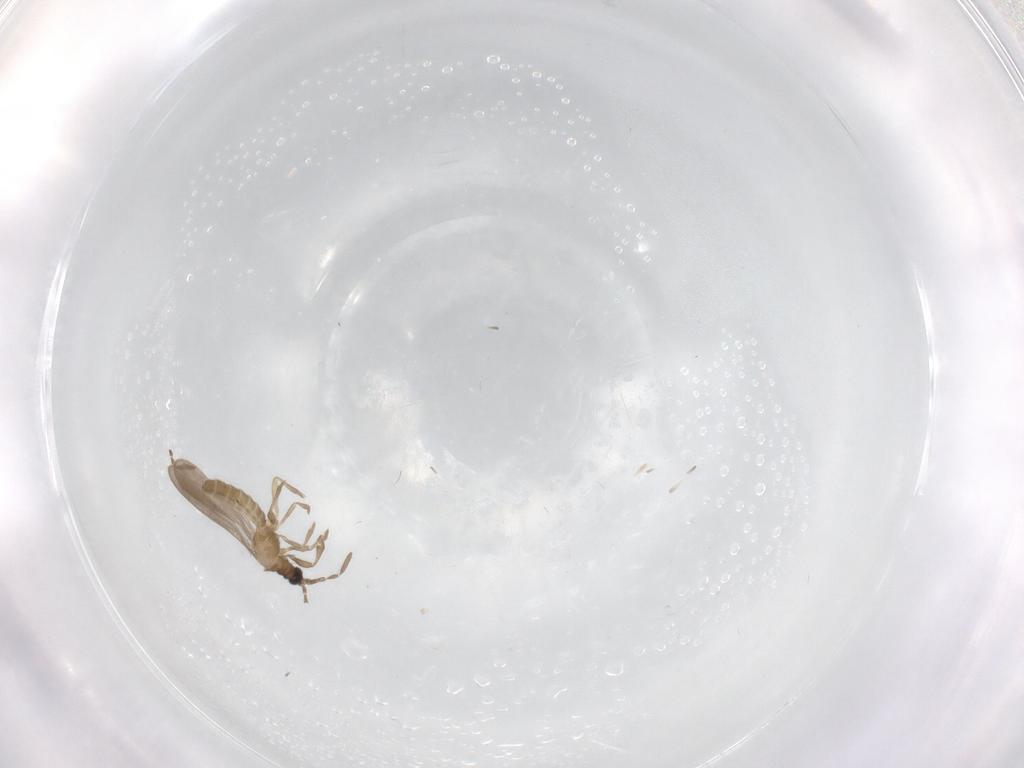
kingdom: Animalia
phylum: Arthropoda
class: Insecta
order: Hemiptera
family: Enicocephalidae
